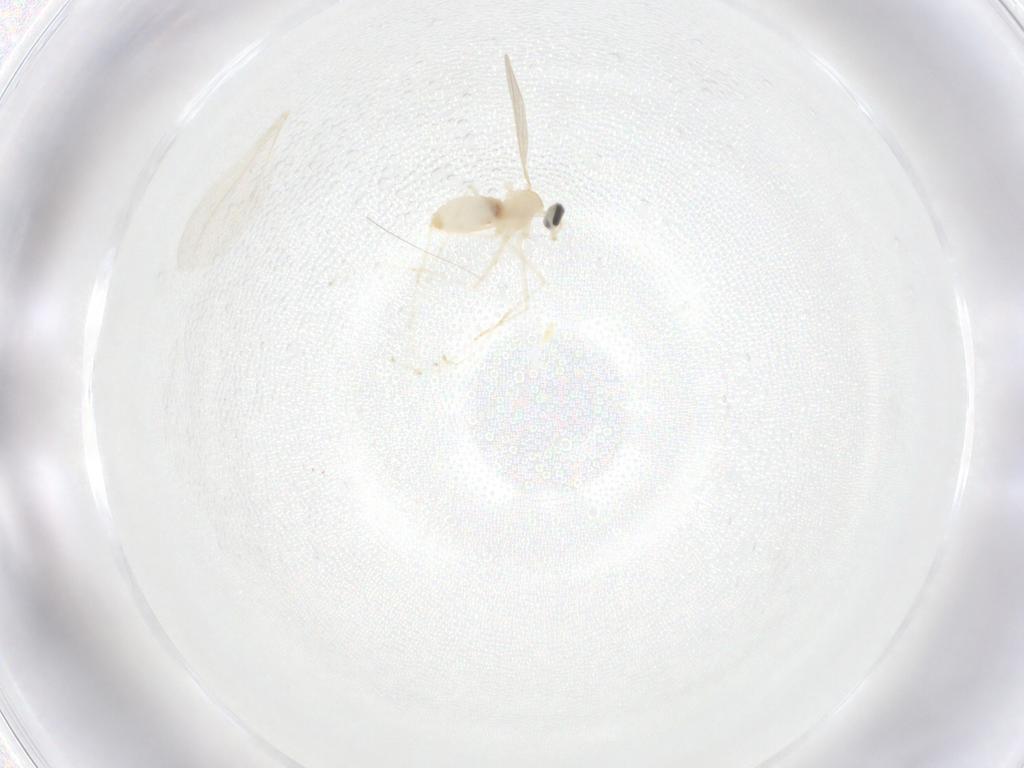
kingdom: Animalia
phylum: Arthropoda
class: Insecta
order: Diptera
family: Cecidomyiidae
